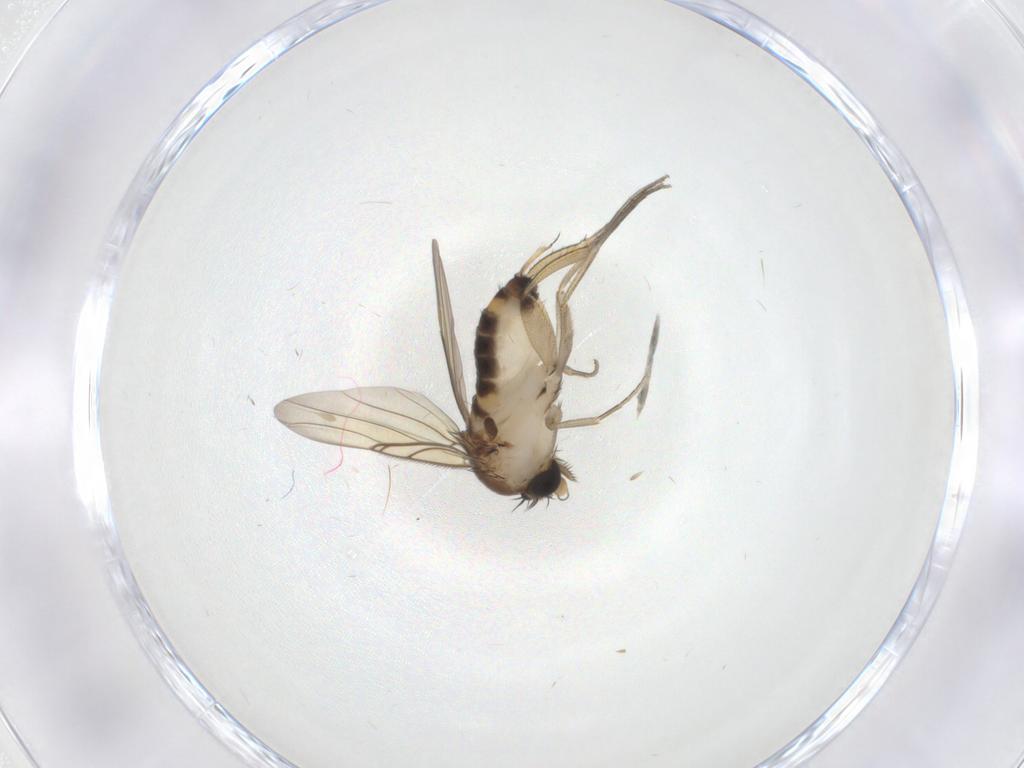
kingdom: Animalia
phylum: Arthropoda
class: Insecta
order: Diptera
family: Phoridae
